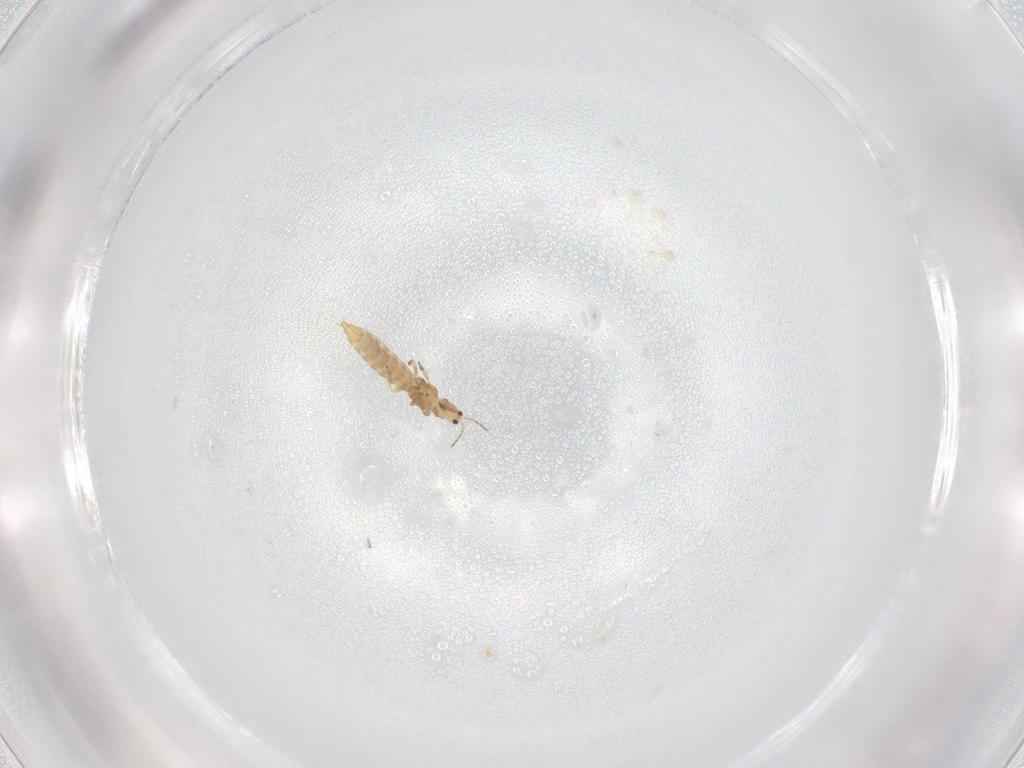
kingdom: Animalia
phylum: Arthropoda
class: Insecta
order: Thysanoptera
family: Thripidae
